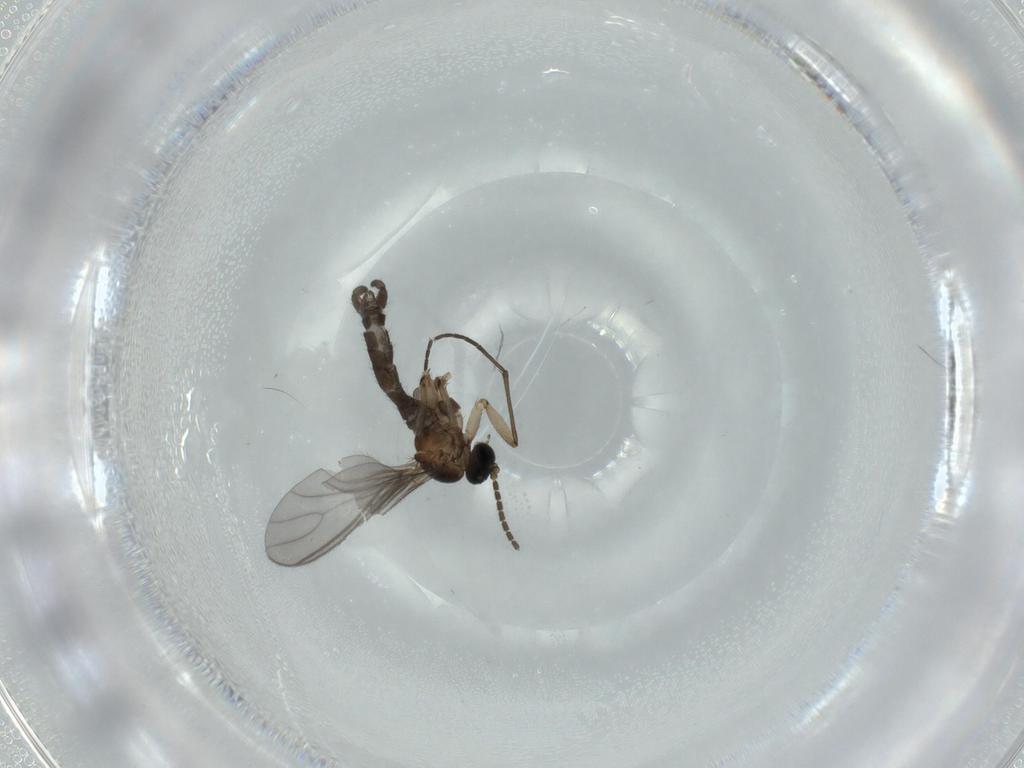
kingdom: Animalia
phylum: Arthropoda
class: Insecta
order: Diptera
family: Sciaridae
